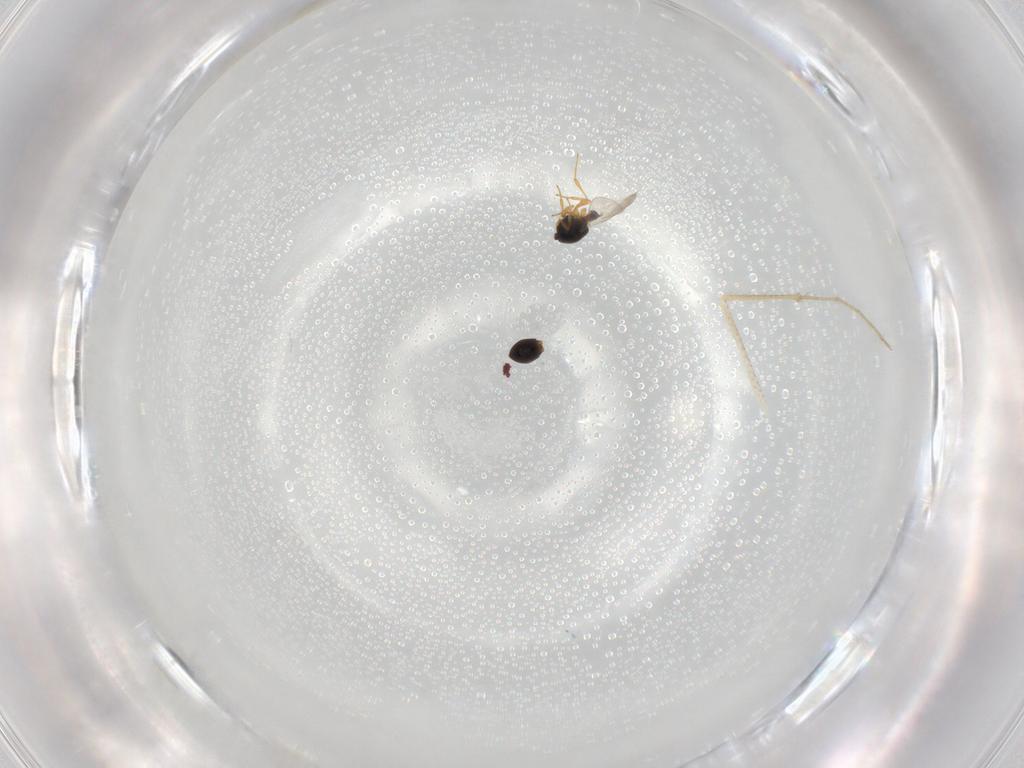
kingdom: Animalia
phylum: Arthropoda
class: Insecta
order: Hymenoptera
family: Platygastridae
